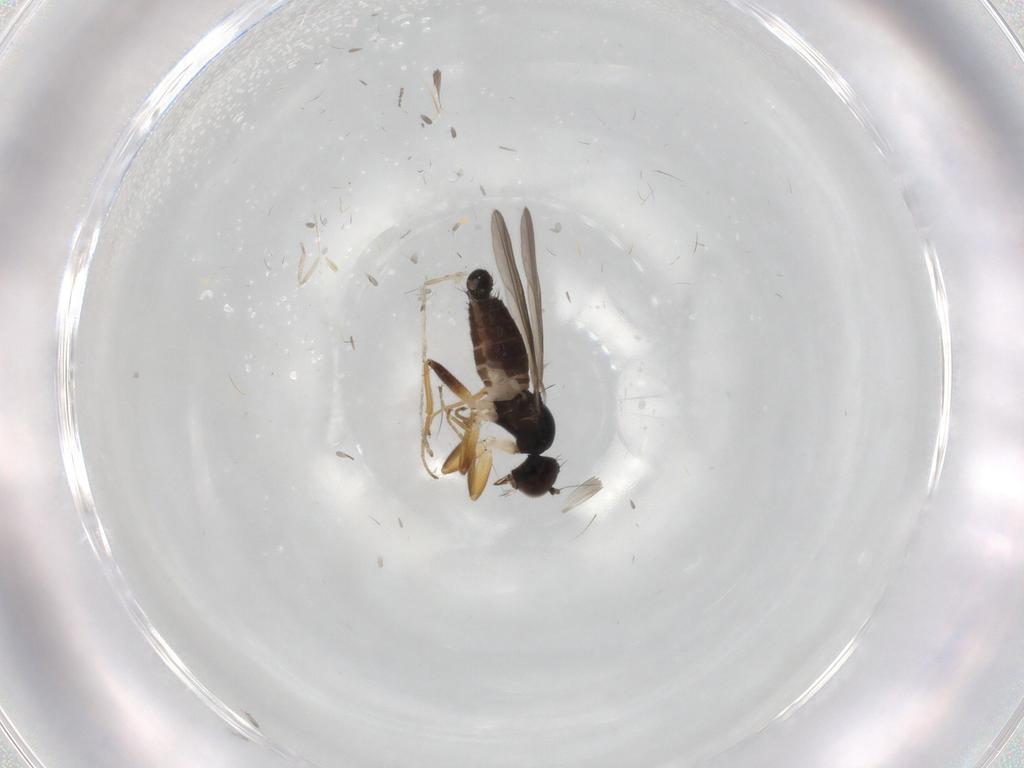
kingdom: Animalia
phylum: Arthropoda
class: Insecta
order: Diptera
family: Hybotidae
